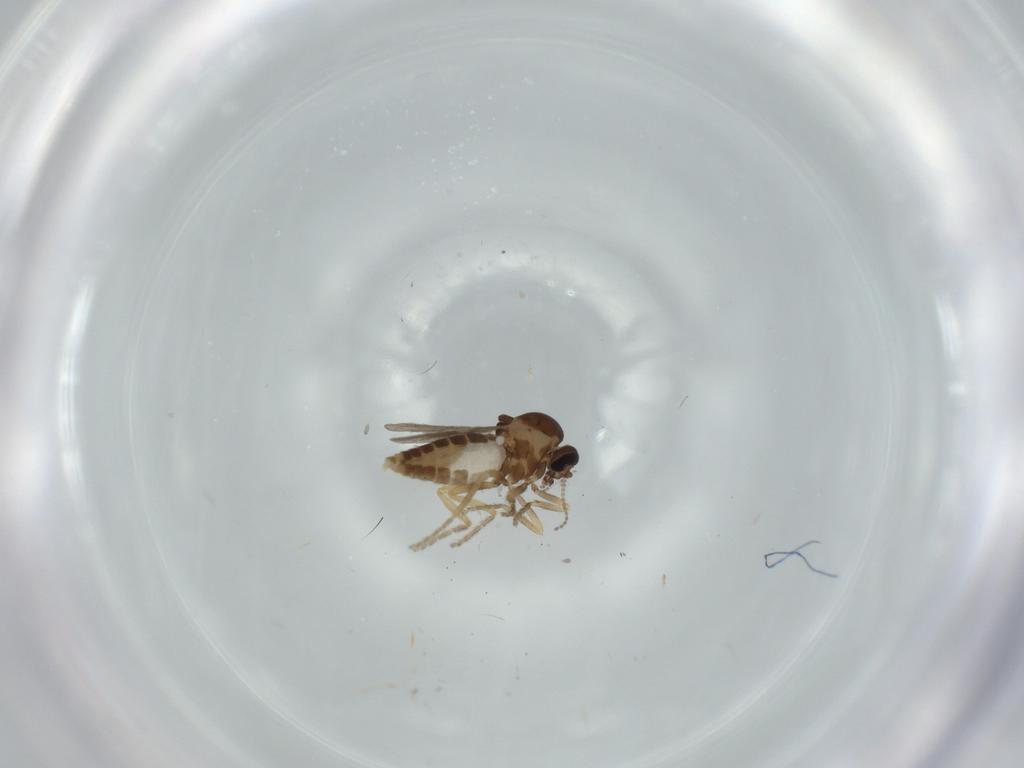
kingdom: Animalia
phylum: Arthropoda
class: Insecta
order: Diptera
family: Ceratopogonidae
